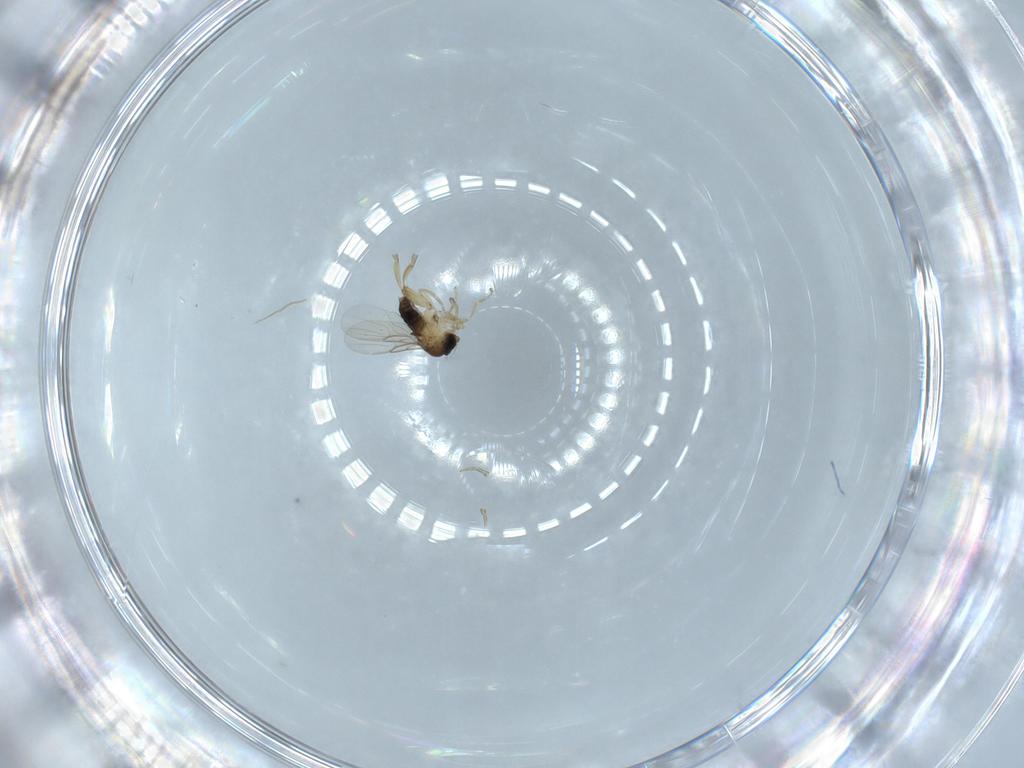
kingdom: Animalia
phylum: Arthropoda
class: Insecta
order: Diptera
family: Phoridae
